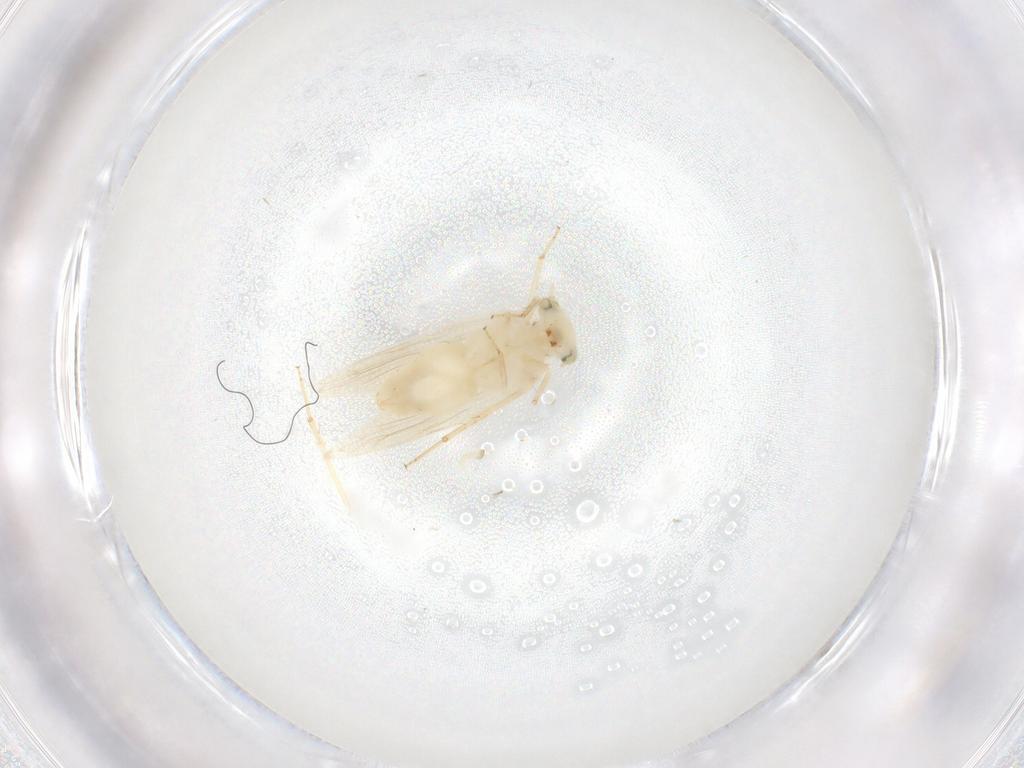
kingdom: Animalia
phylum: Arthropoda
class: Insecta
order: Psocodea
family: Lepidopsocidae
